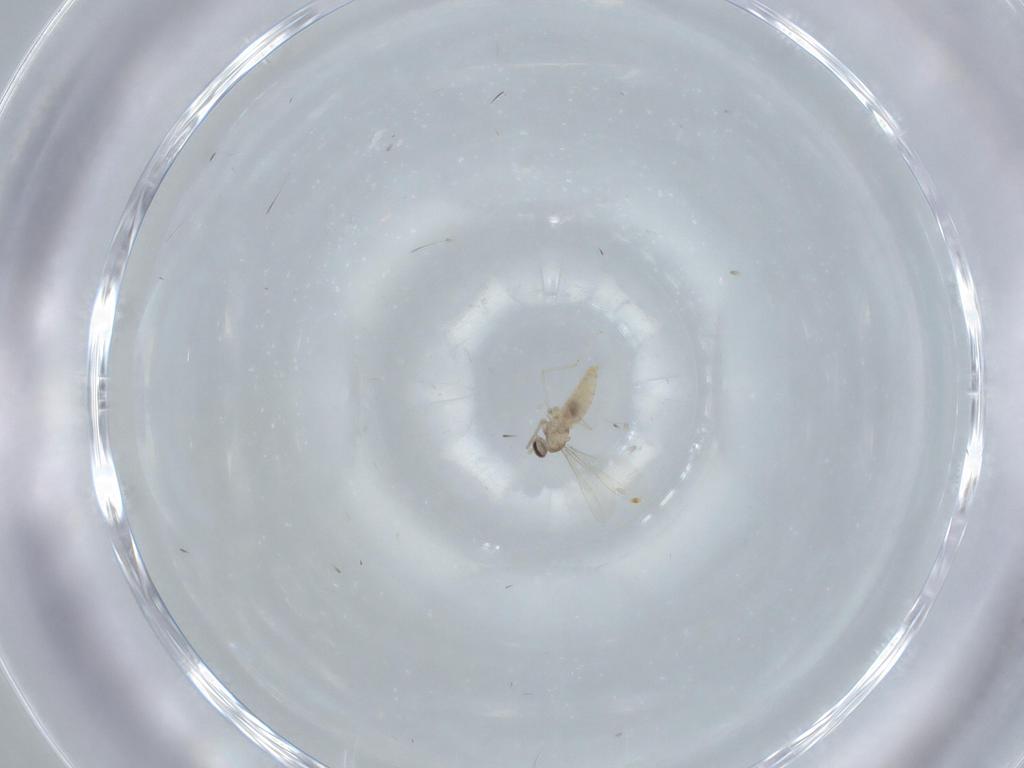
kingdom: Animalia
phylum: Arthropoda
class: Insecta
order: Diptera
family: Cecidomyiidae
